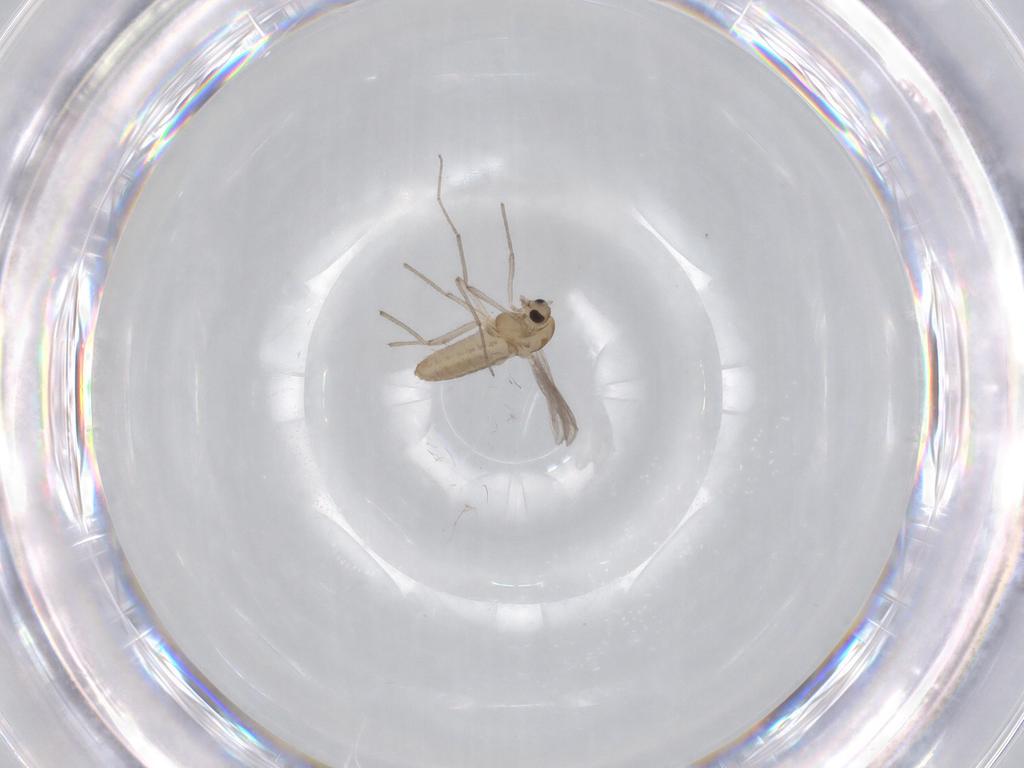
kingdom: Animalia
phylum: Arthropoda
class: Insecta
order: Diptera
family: Chironomidae
